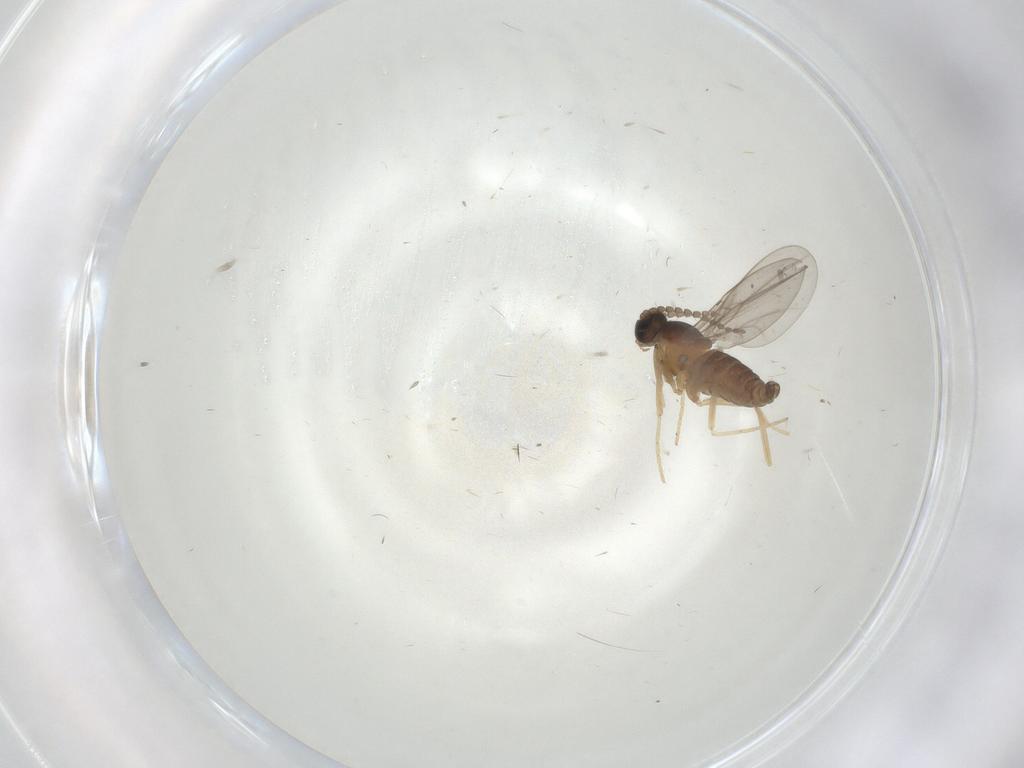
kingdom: Animalia
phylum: Arthropoda
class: Insecta
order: Diptera
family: Cecidomyiidae
